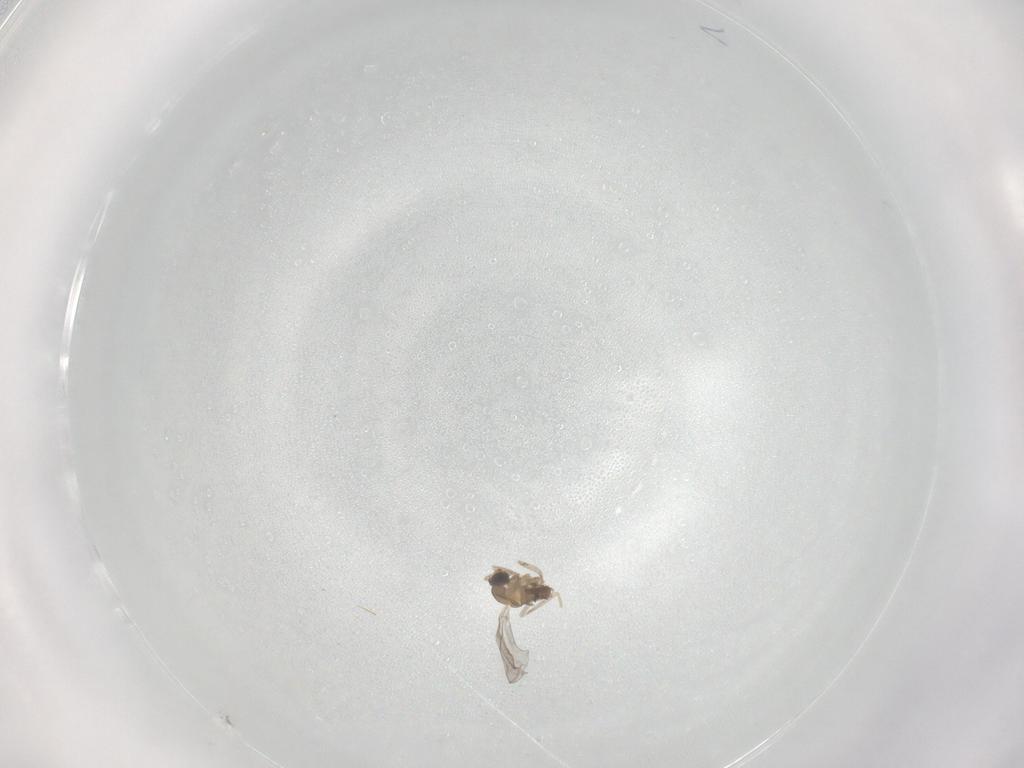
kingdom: Animalia
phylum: Arthropoda
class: Insecta
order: Diptera
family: Cecidomyiidae
